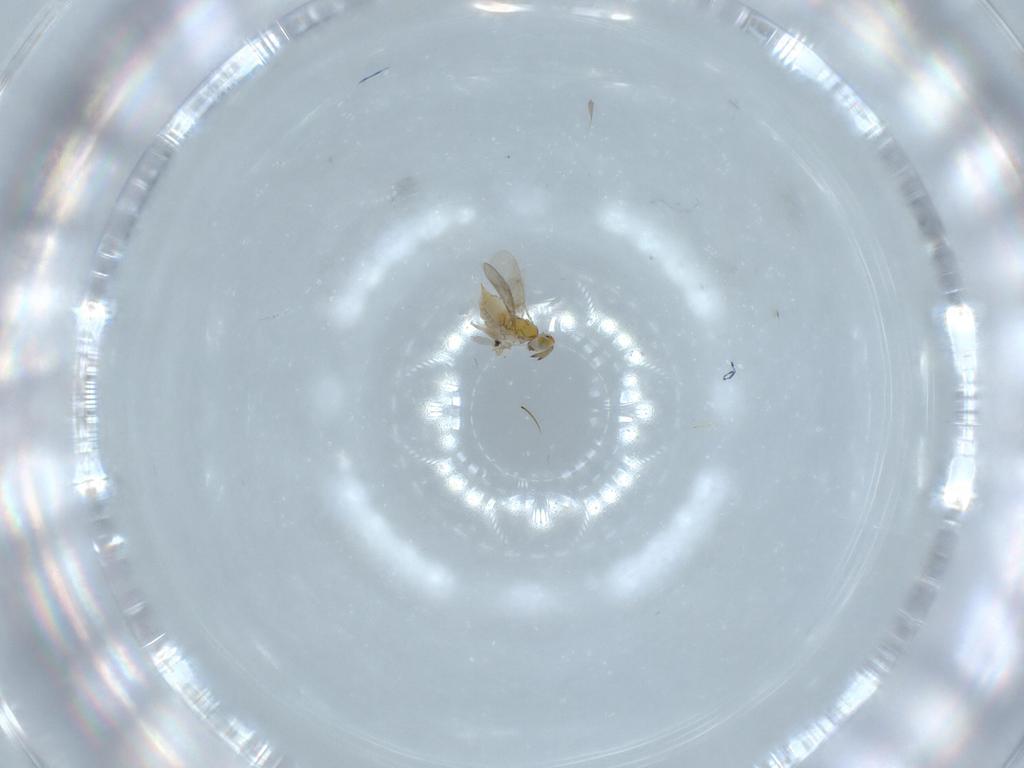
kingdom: Animalia
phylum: Arthropoda
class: Insecta
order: Hymenoptera
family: Aphelinidae
